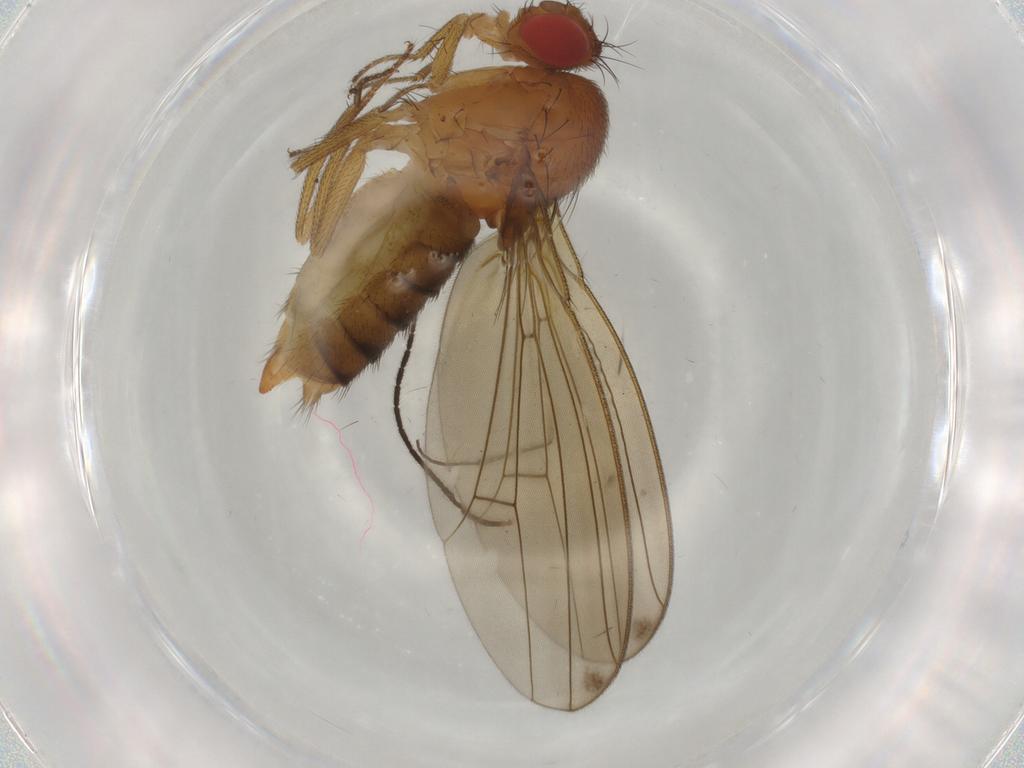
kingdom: Animalia
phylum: Arthropoda
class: Insecta
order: Diptera
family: Drosophilidae
